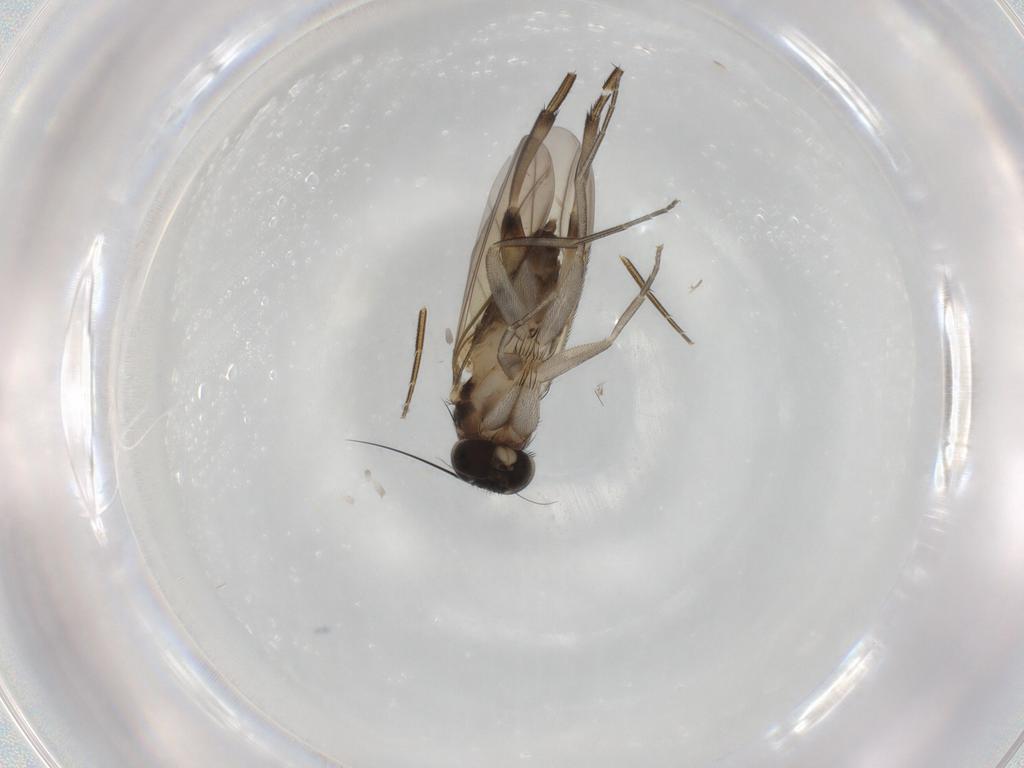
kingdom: Animalia
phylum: Arthropoda
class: Insecta
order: Diptera
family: Phoridae
